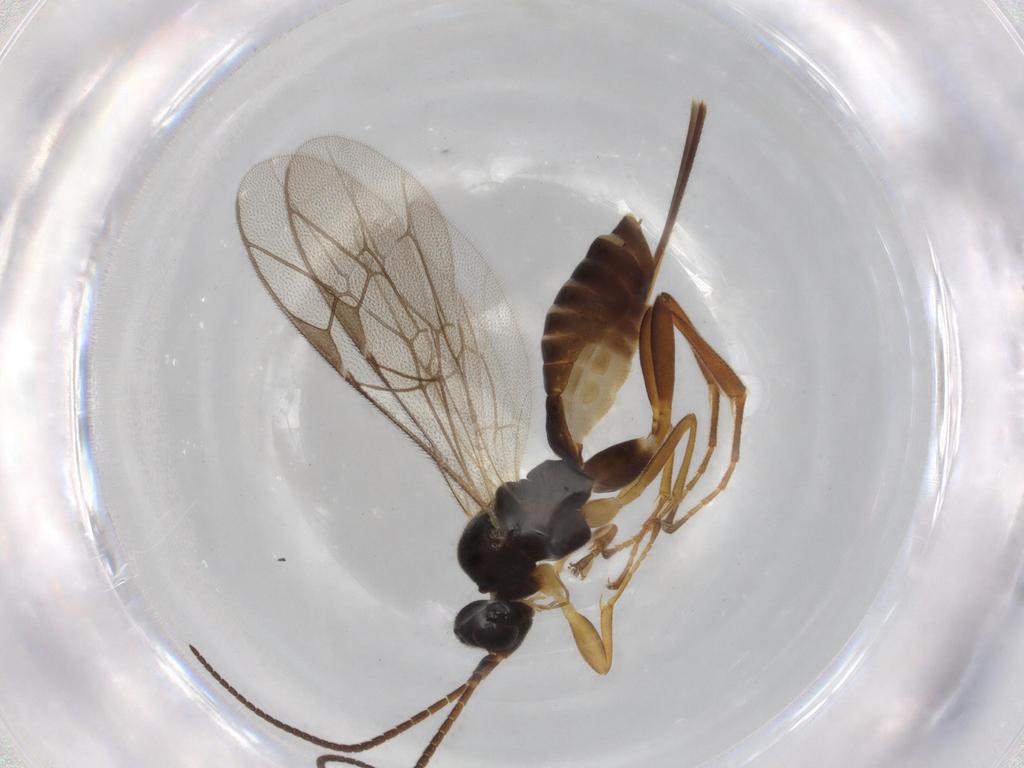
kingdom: Animalia
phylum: Arthropoda
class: Insecta
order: Hymenoptera
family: Ichneumonidae
